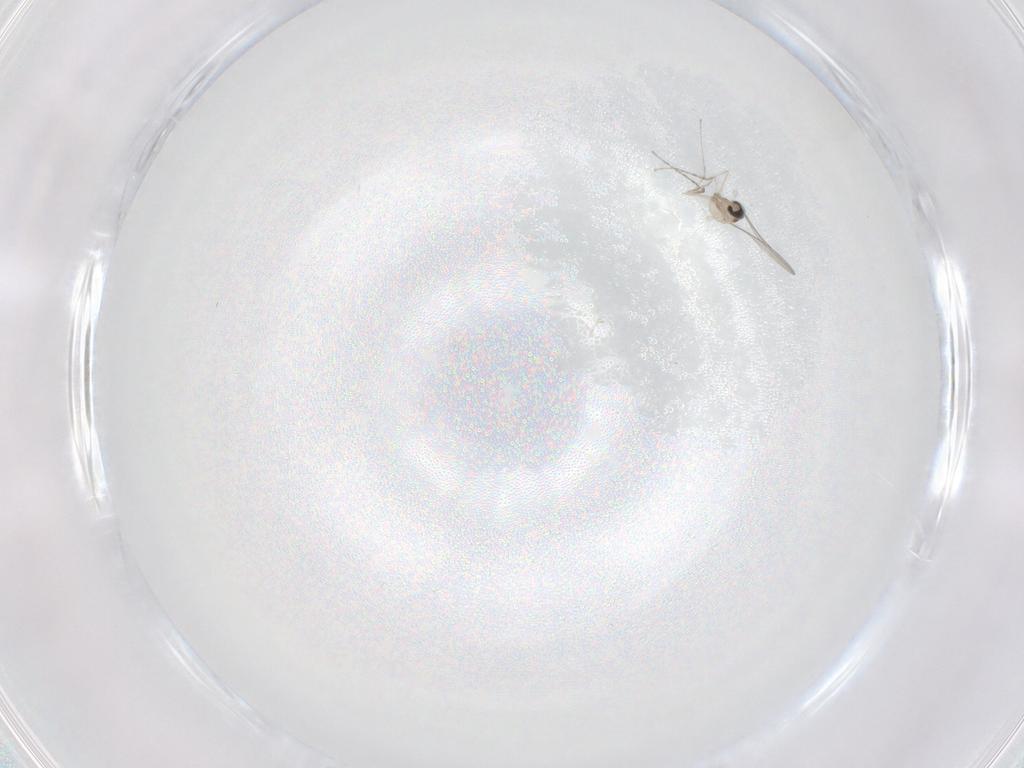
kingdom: Animalia
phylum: Arthropoda
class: Insecta
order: Diptera
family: Cecidomyiidae
